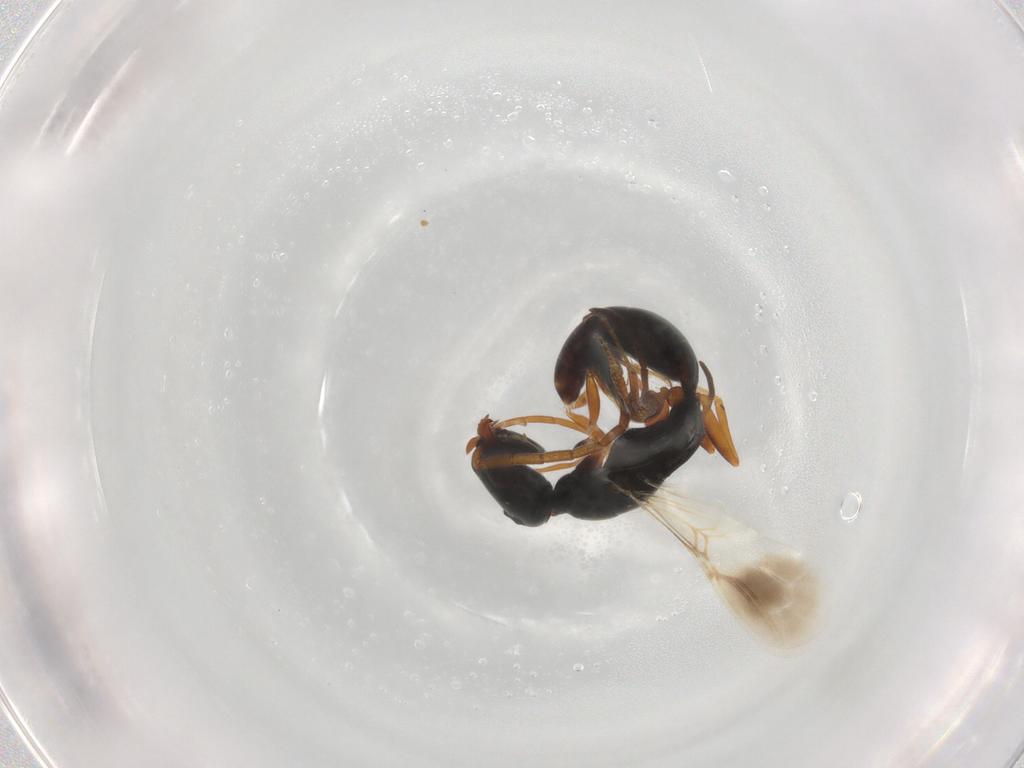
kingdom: Animalia
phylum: Arthropoda
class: Insecta
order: Hymenoptera
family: Bethylidae
